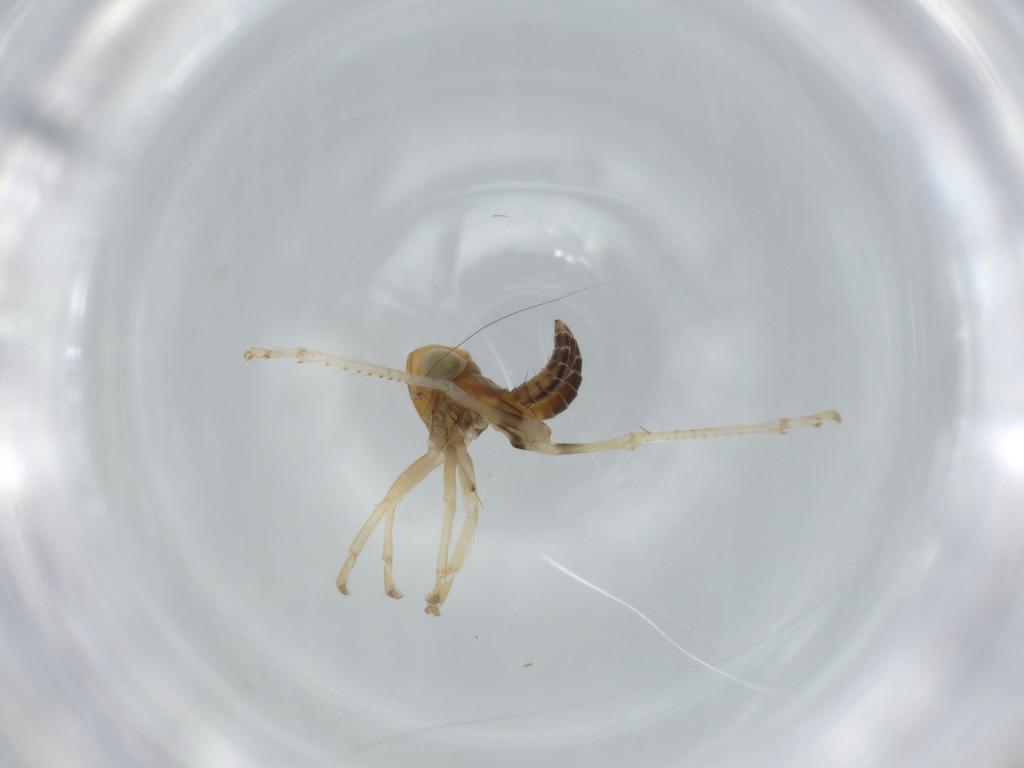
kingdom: Animalia
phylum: Arthropoda
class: Insecta
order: Hemiptera
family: Cicadellidae
